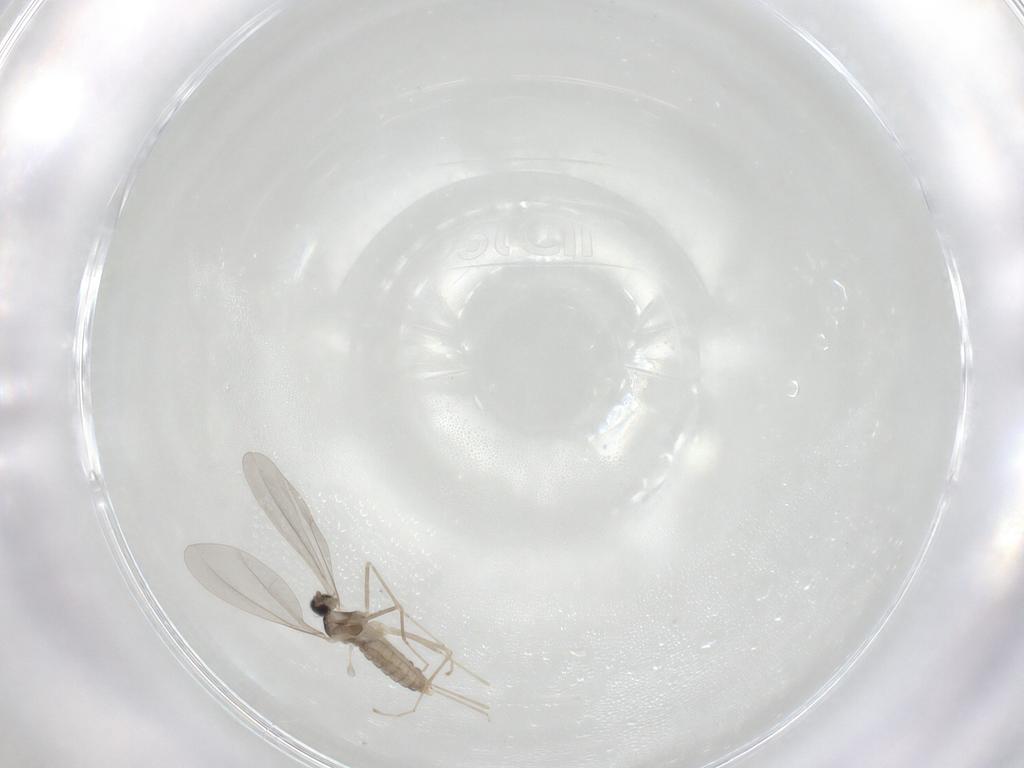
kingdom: Animalia
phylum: Arthropoda
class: Insecta
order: Diptera
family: Cecidomyiidae
